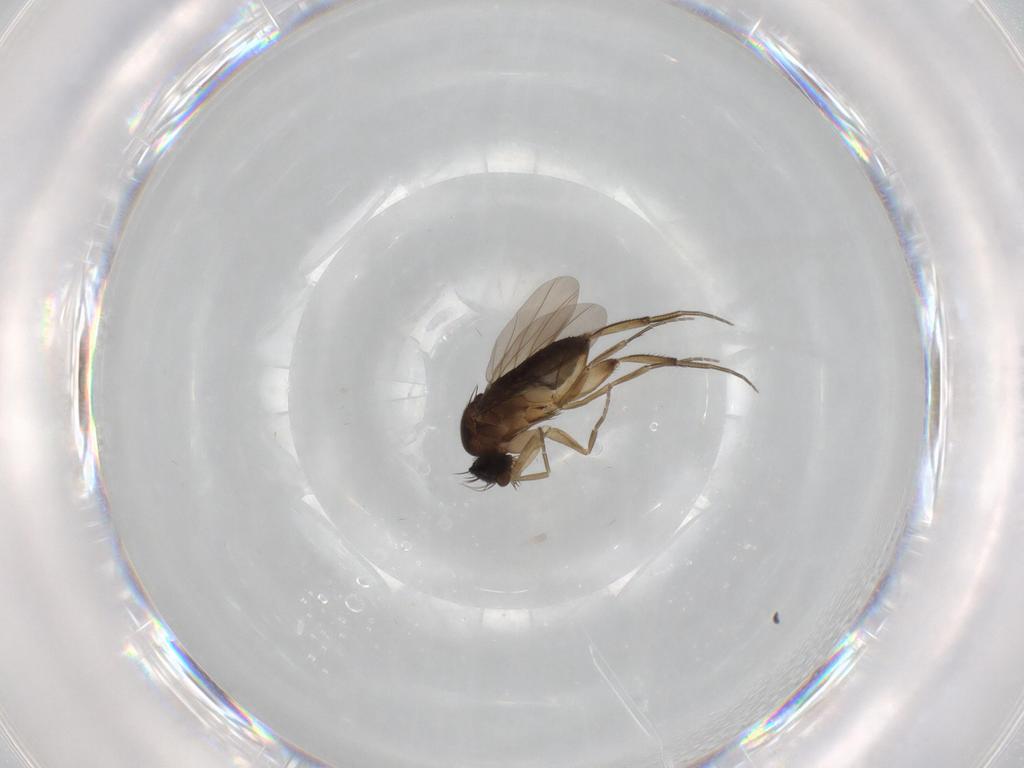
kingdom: Animalia
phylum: Arthropoda
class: Insecta
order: Diptera
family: Phoridae
